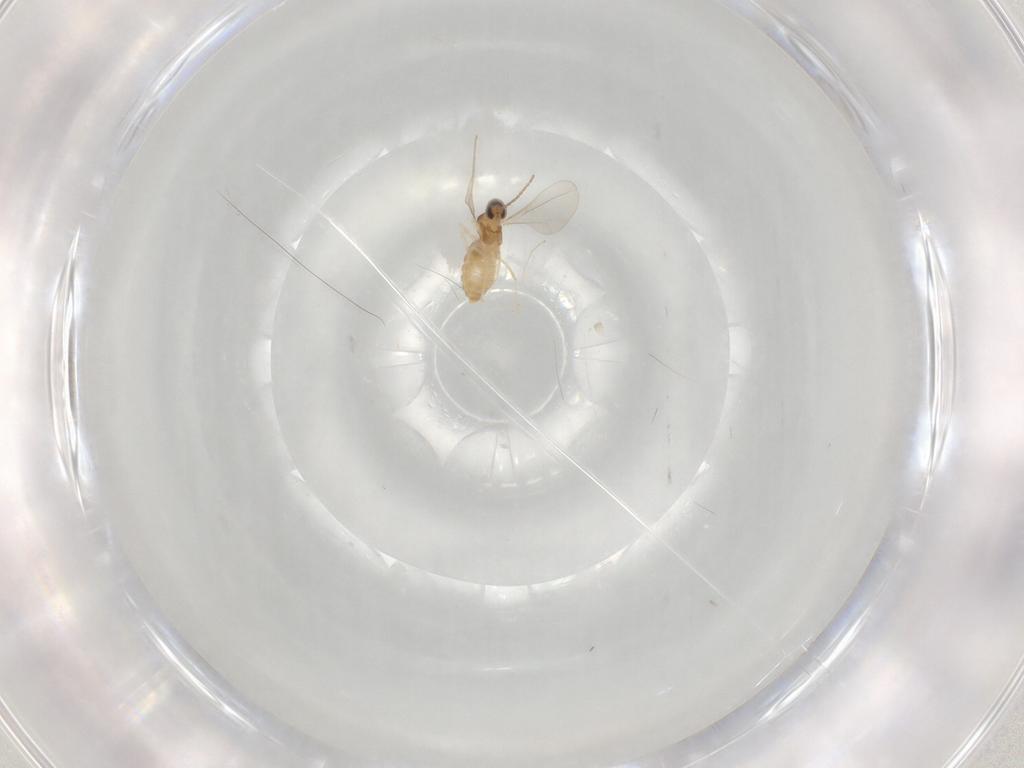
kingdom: Animalia
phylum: Arthropoda
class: Insecta
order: Diptera
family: Cecidomyiidae
